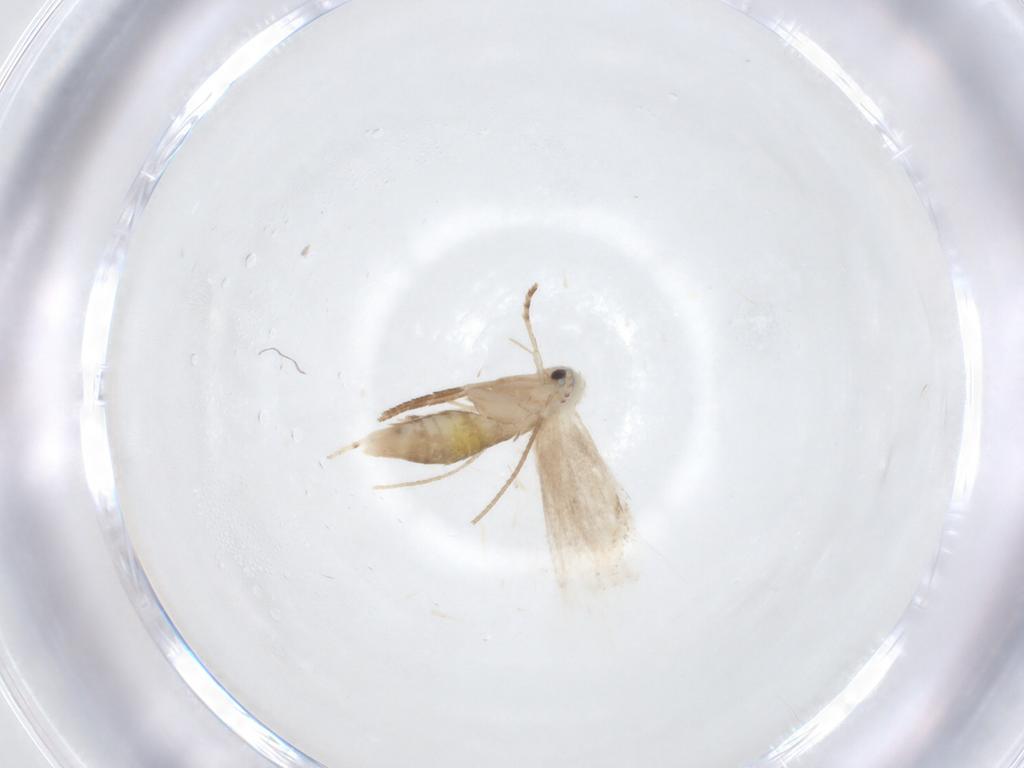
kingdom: Animalia
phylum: Arthropoda
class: Insecta
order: Lepidoptera
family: Lyonetiidae
